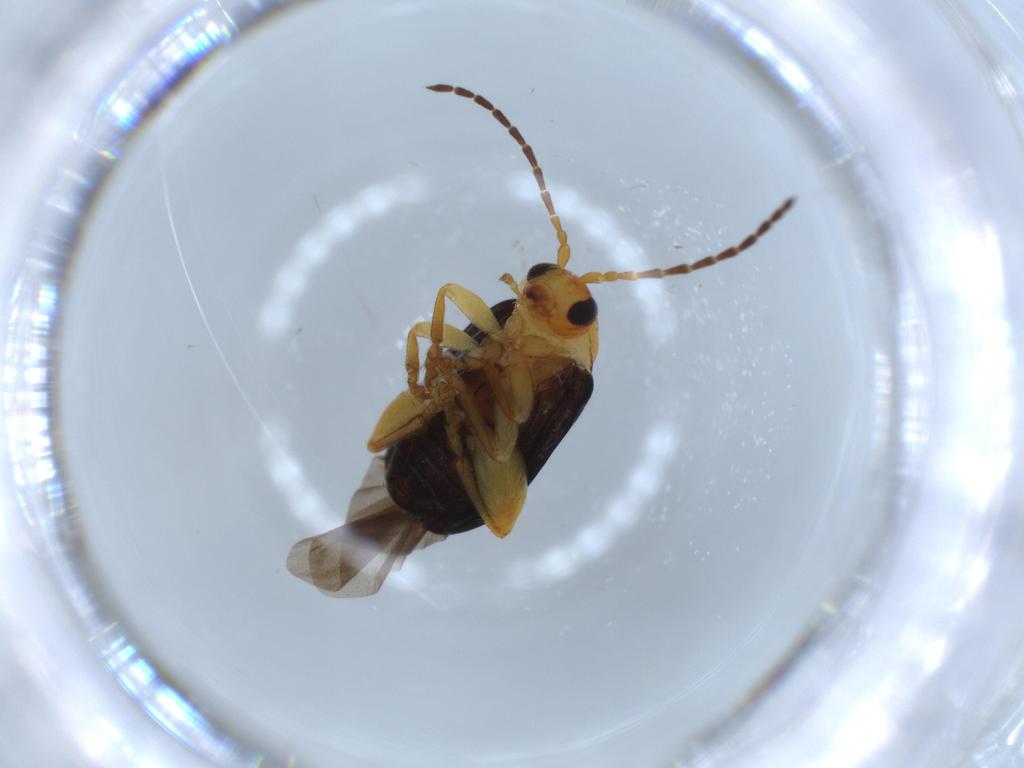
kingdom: Animalia
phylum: Arthropoda
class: Insecta
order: Coleoptera
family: Chrysomelidae
